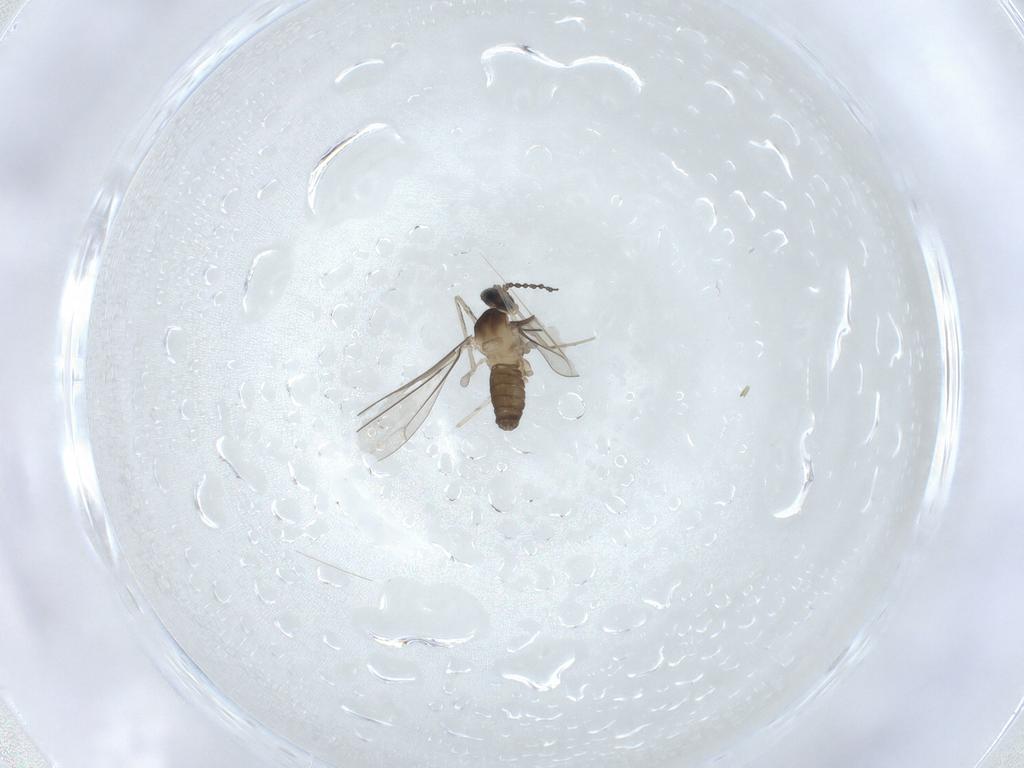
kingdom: Animalia
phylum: Arthropoda
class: Insecta
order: Diptera
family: Cecidomyiidae
